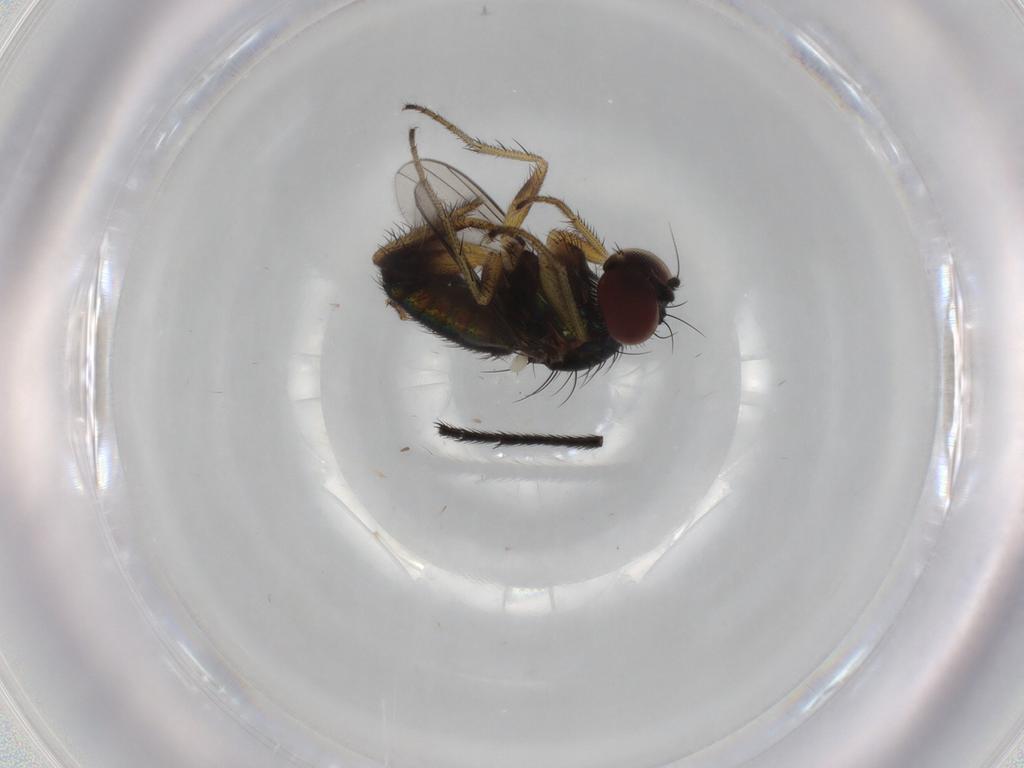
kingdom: Animalia
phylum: Arthropoda
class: Insecta
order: Diptera
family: Dolichopodidae
